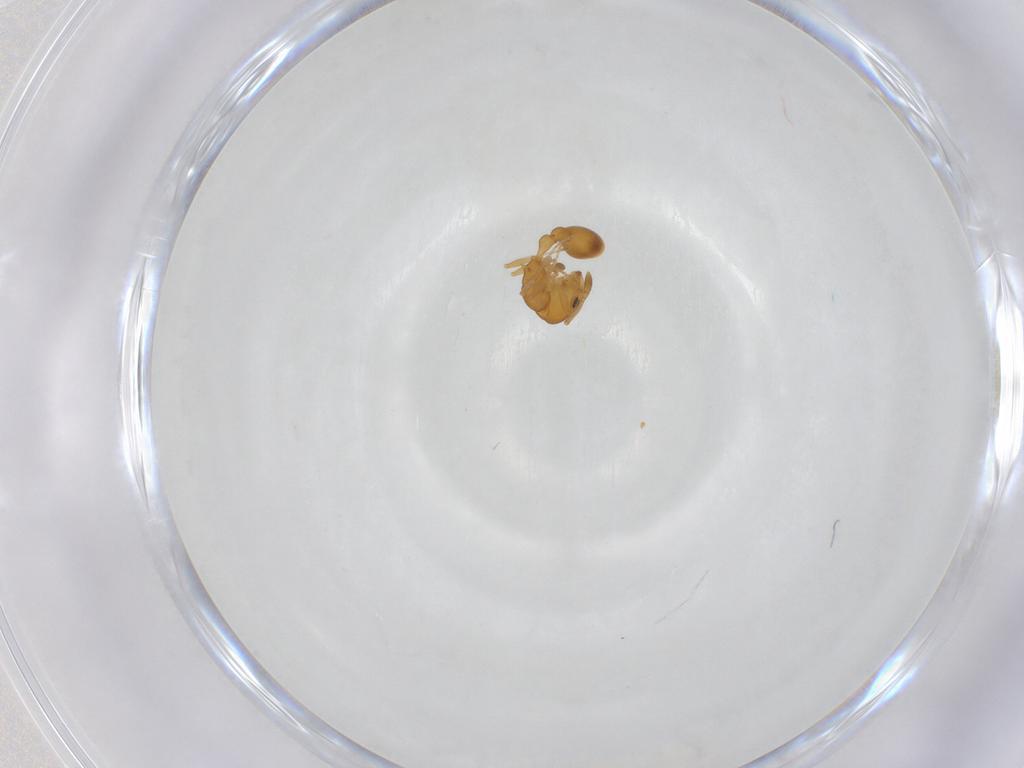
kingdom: Animalia
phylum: Arthropoda
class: Insecta
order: Hymenoptera
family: Formicidae
